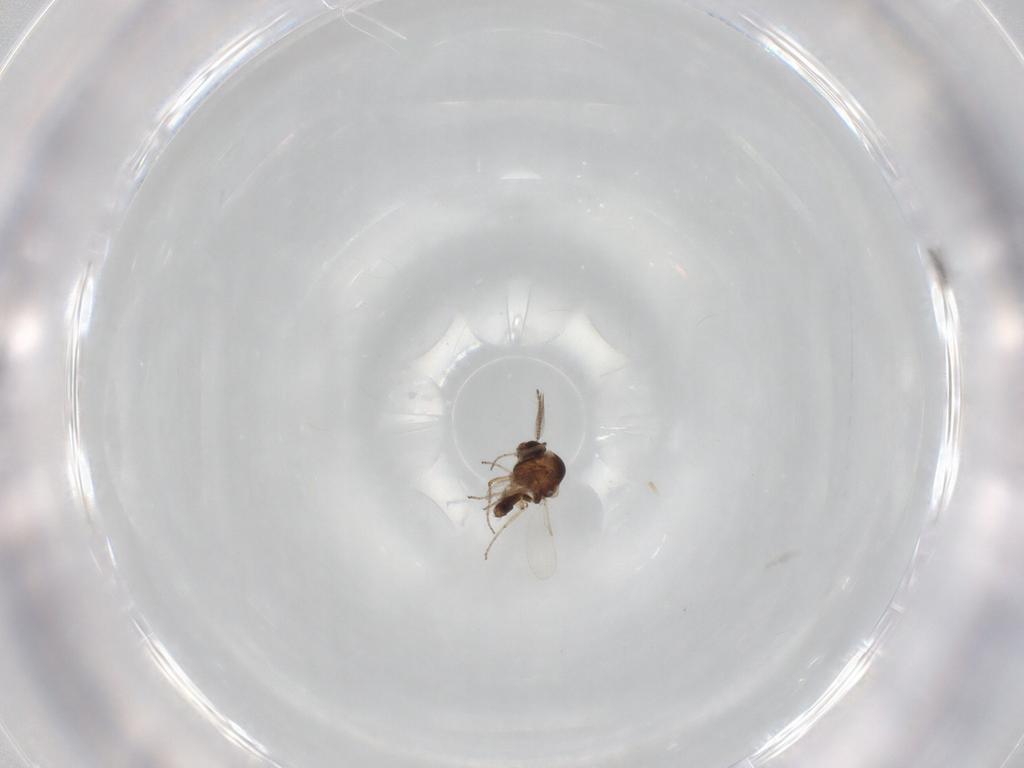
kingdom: Animalia
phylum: Arthropoda
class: Insecta
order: Diptera
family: Ceratopogonidae
